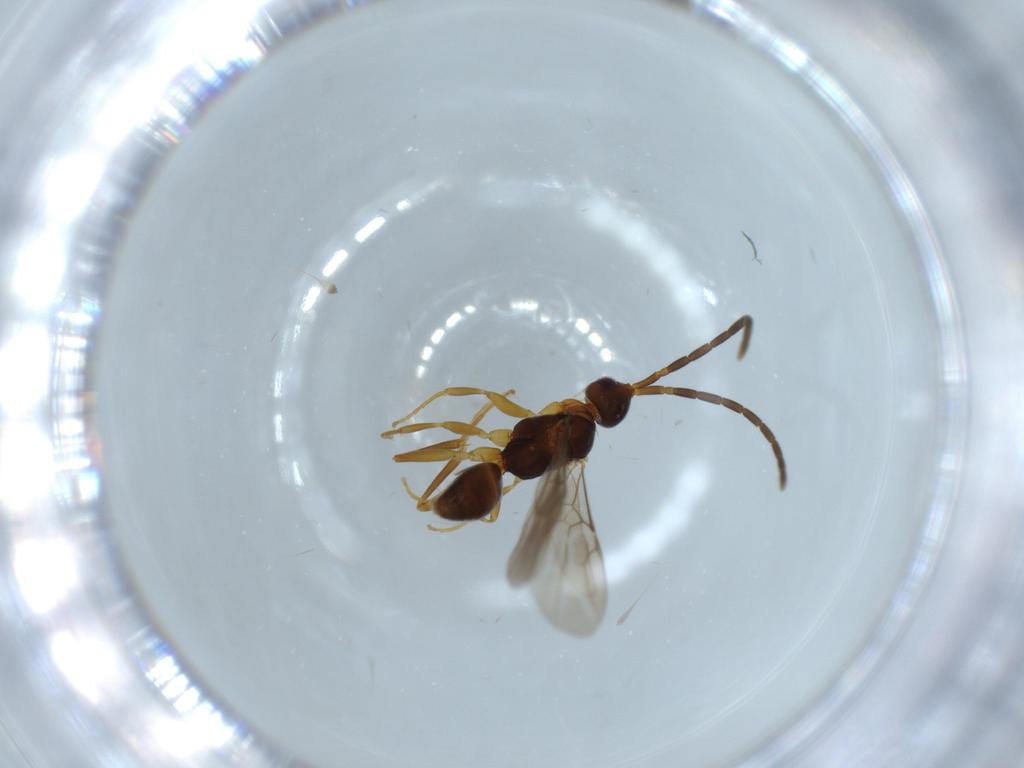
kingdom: Animalia
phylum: Arthropoda
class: Insecta
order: Hymenoptera
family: Embolemidae
